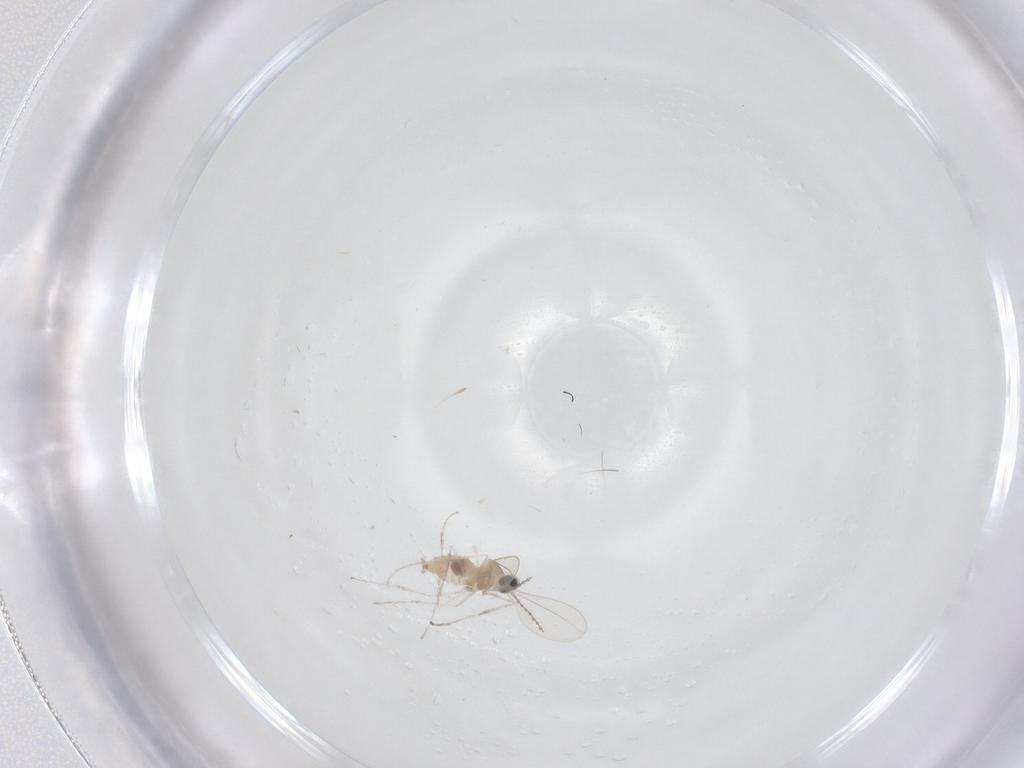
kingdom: Animalia
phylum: Arthropoda
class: Insecta
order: Diptera
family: Cecidomyiidae
